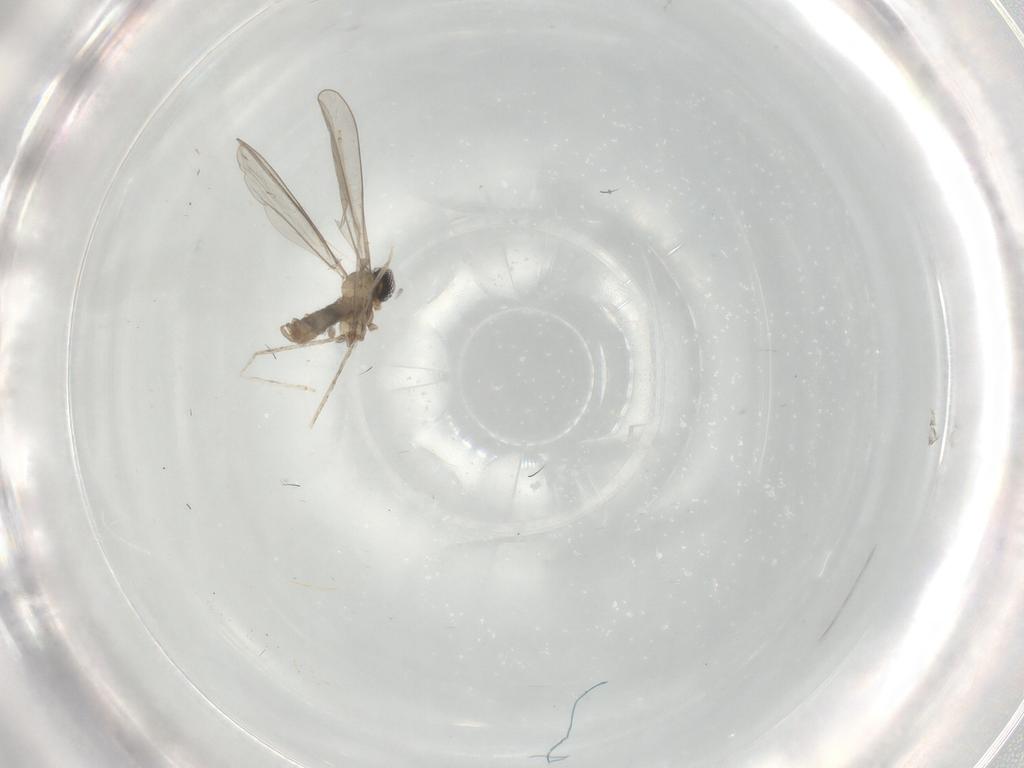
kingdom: Animalia
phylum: Arthropoda
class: Insecta
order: Diptera
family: Cecidomyiidae
